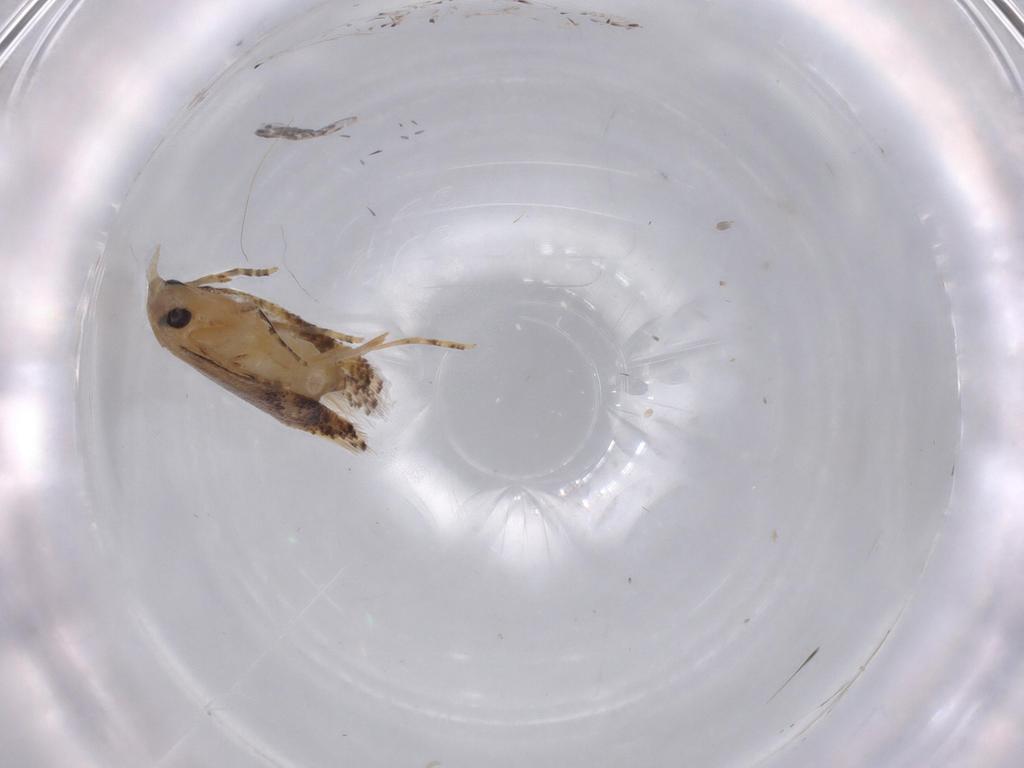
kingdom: Animalia
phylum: Arthropoda
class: Insecta
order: Lepidoptera
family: Bucculatricidae
